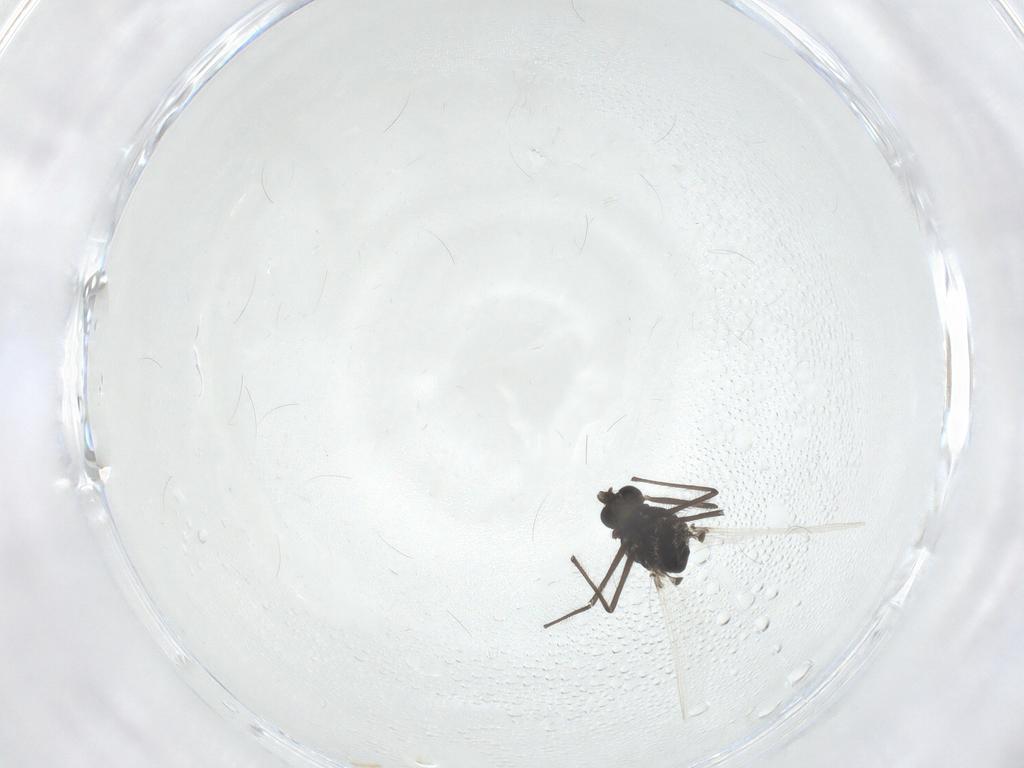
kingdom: Animalia
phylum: Arthropoda
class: Insecta
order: Diptera
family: Chironomidae
